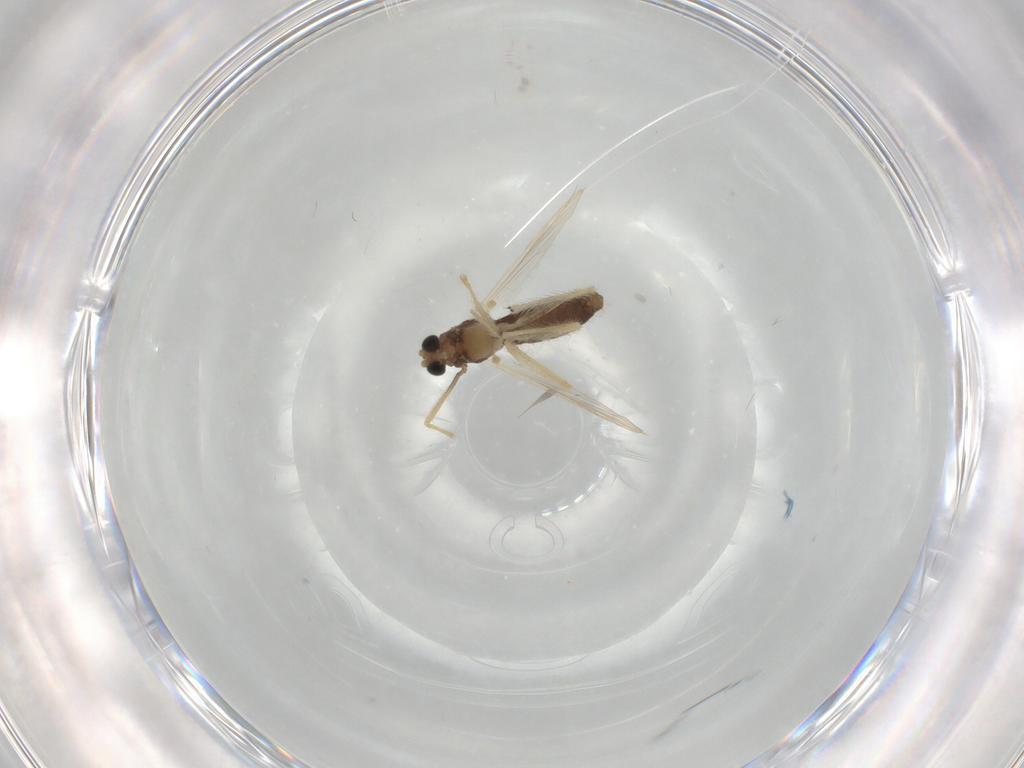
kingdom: Animalia
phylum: Arthropoda
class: Insecta
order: Diptera
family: Chironomidae
